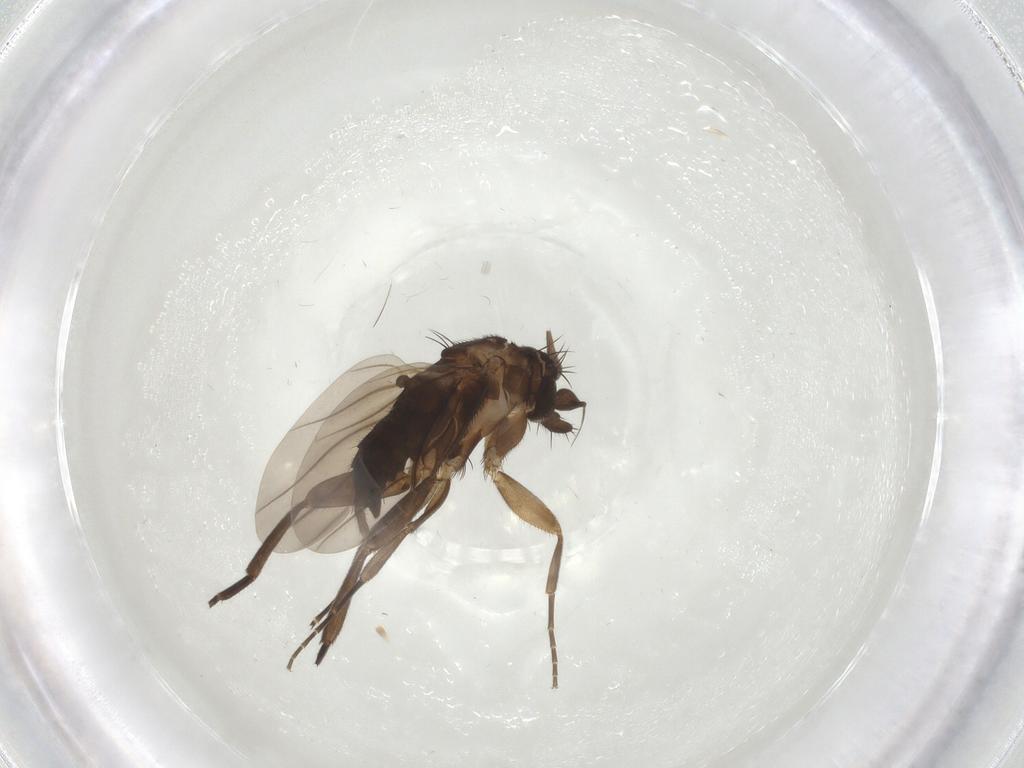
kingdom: Animalia
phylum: Arthropoda
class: Insecta
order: Diptera
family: Phoridae
